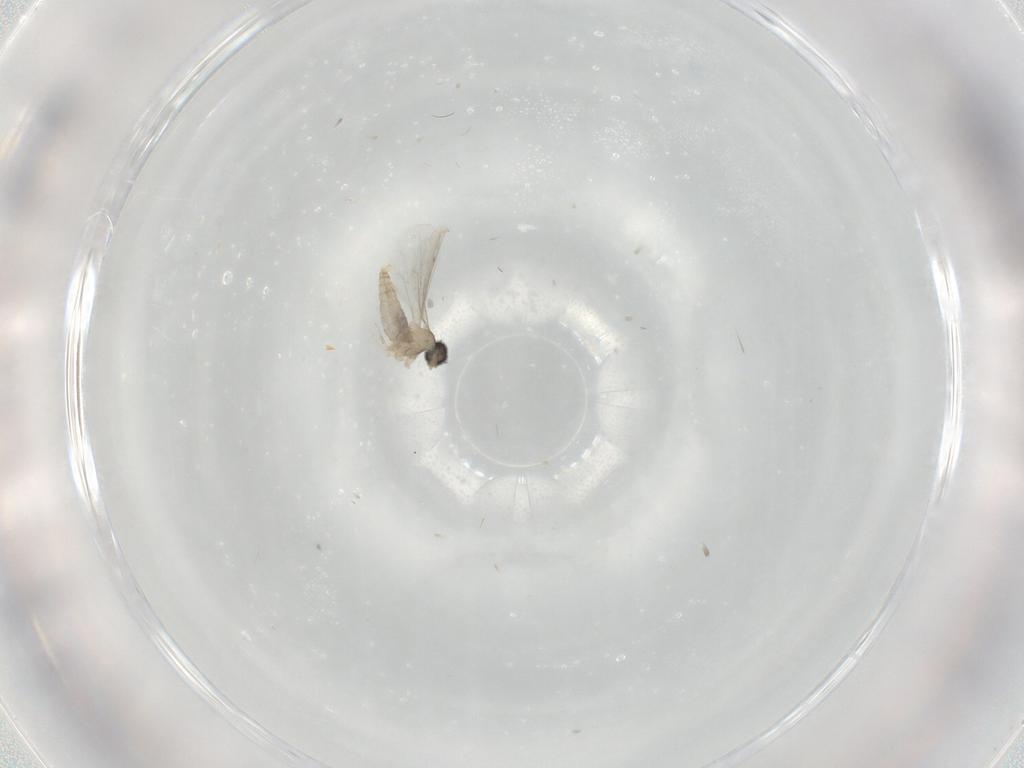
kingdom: Animalia
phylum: Arthropoda
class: Insecta
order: Diptera
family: Cecidomyiidae
